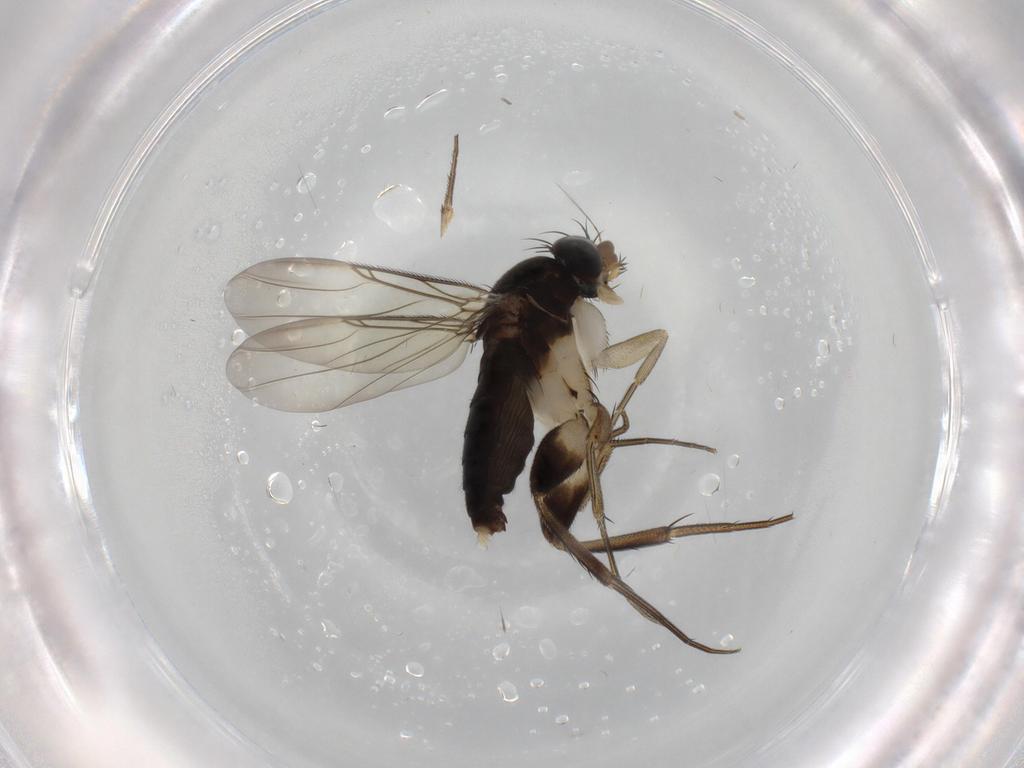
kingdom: Animalia
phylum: Arthropoda
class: Insecta
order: Diptera
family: Phoridae
